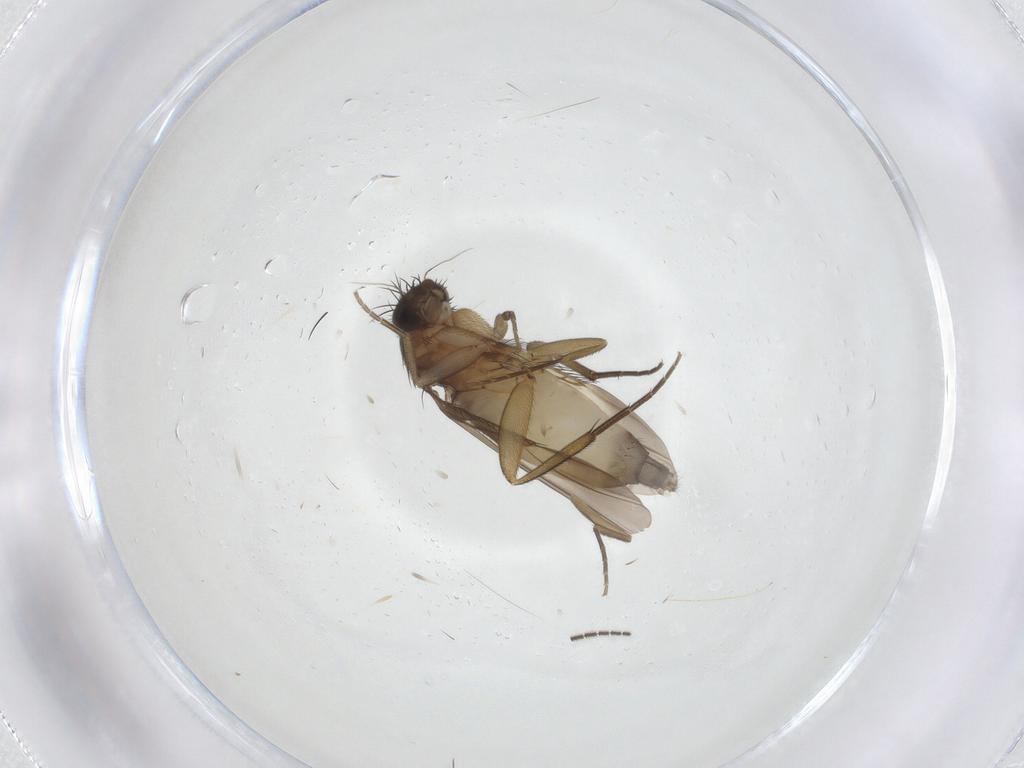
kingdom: Animalia
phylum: Arthropoda
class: Insecta
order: Diptera
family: Phoridae
